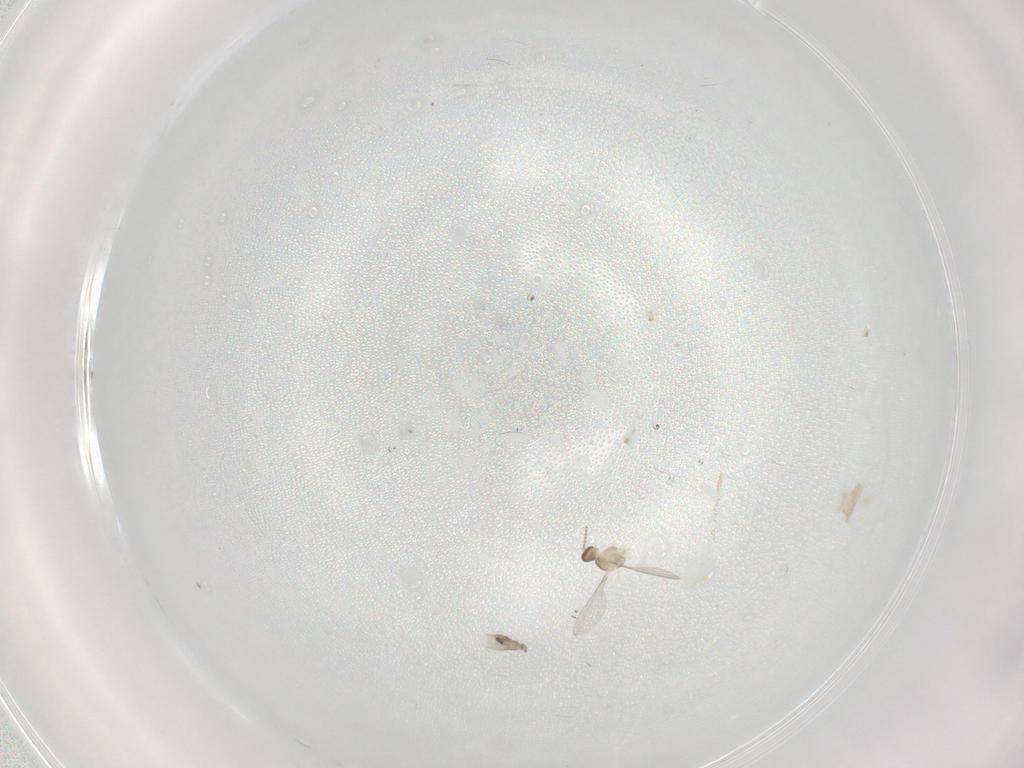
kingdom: Animalia
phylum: Arthropoda
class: Insecta
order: Diptera
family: Cecidomyiidae
